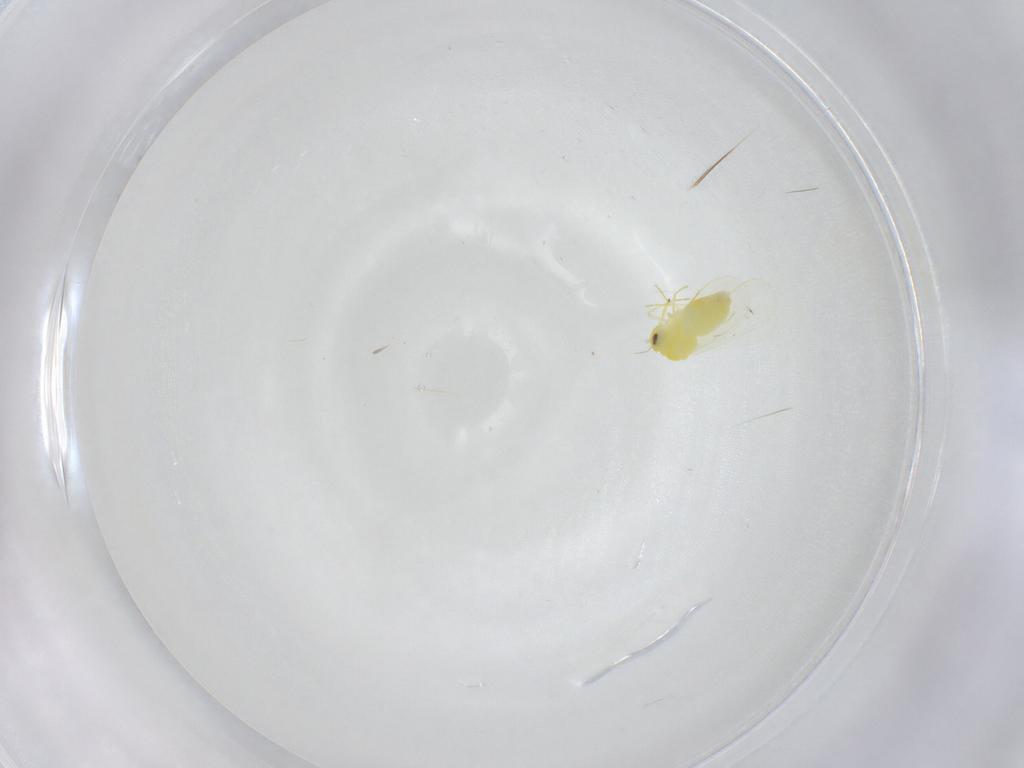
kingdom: Animalia
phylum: Arthropoda
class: Insecta
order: Hemiptera
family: Aleyrodidae
